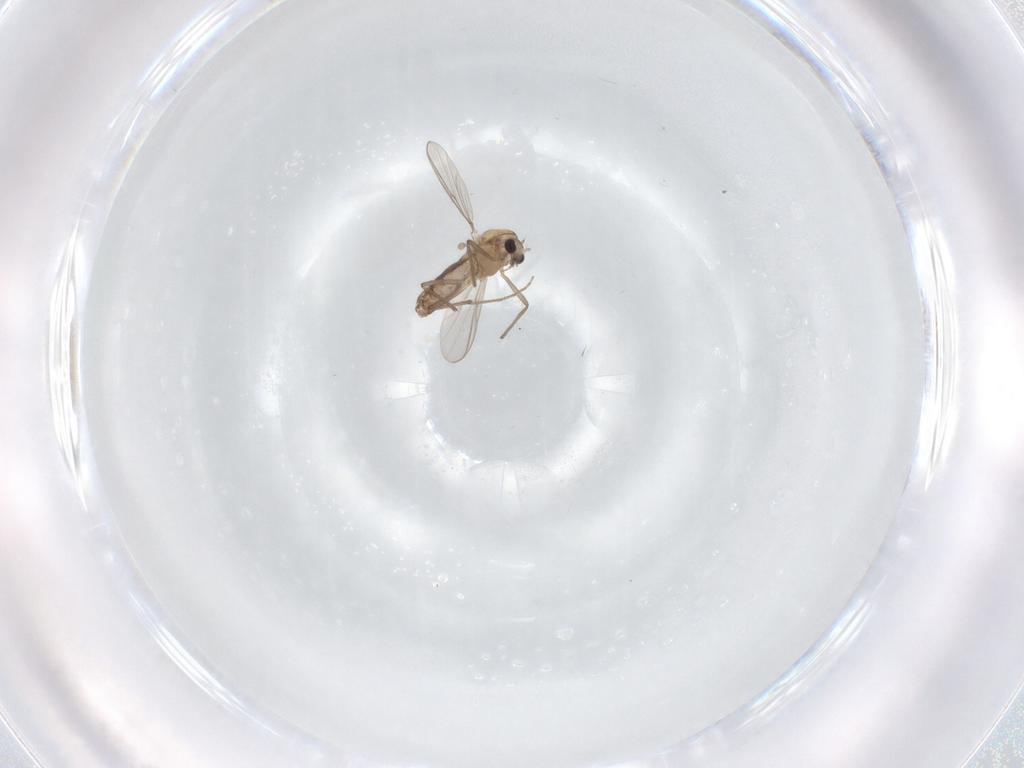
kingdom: Animalia
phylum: Arthropoda
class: Insecta
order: Diptera
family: Chironomidae
